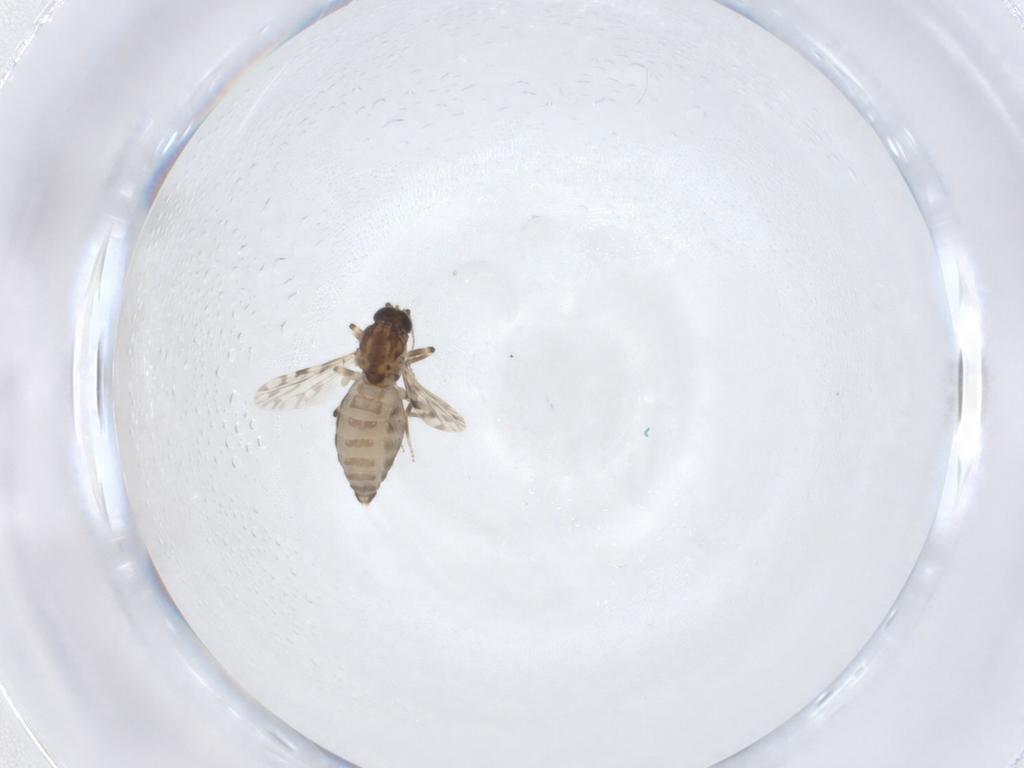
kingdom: Animalia
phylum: Arthropoda
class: Insecta
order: Diptera
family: Cecidomyiidae
